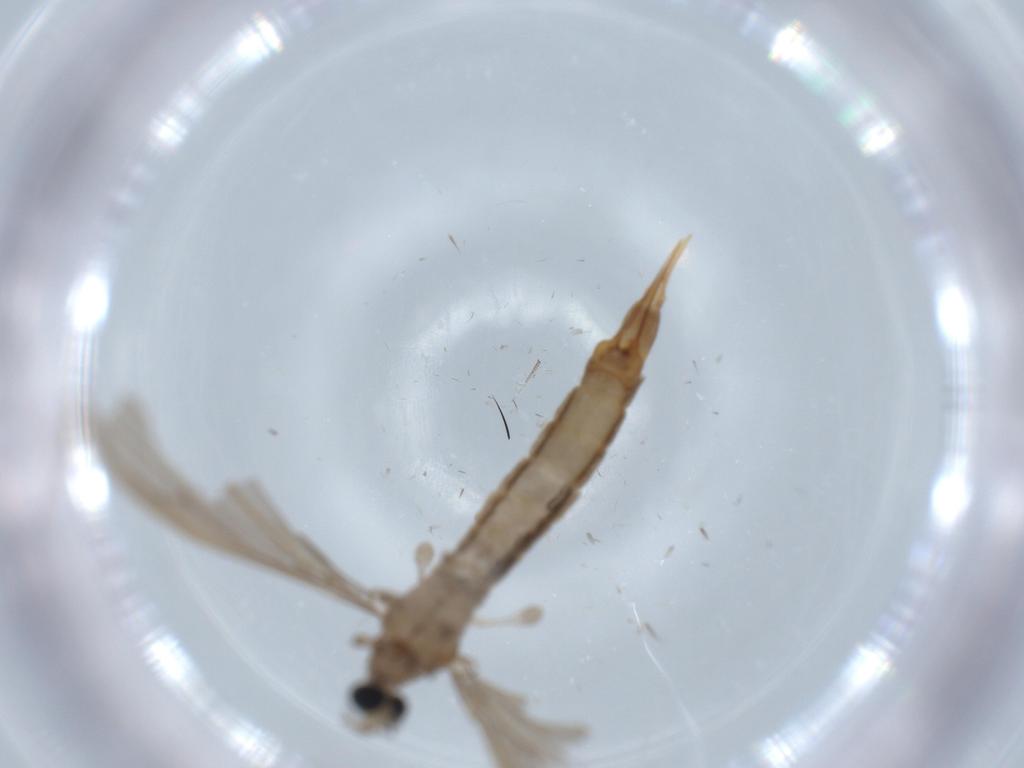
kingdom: Animalia
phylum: Arthropoda
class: Insecta
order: Diptera
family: Sciaridae
